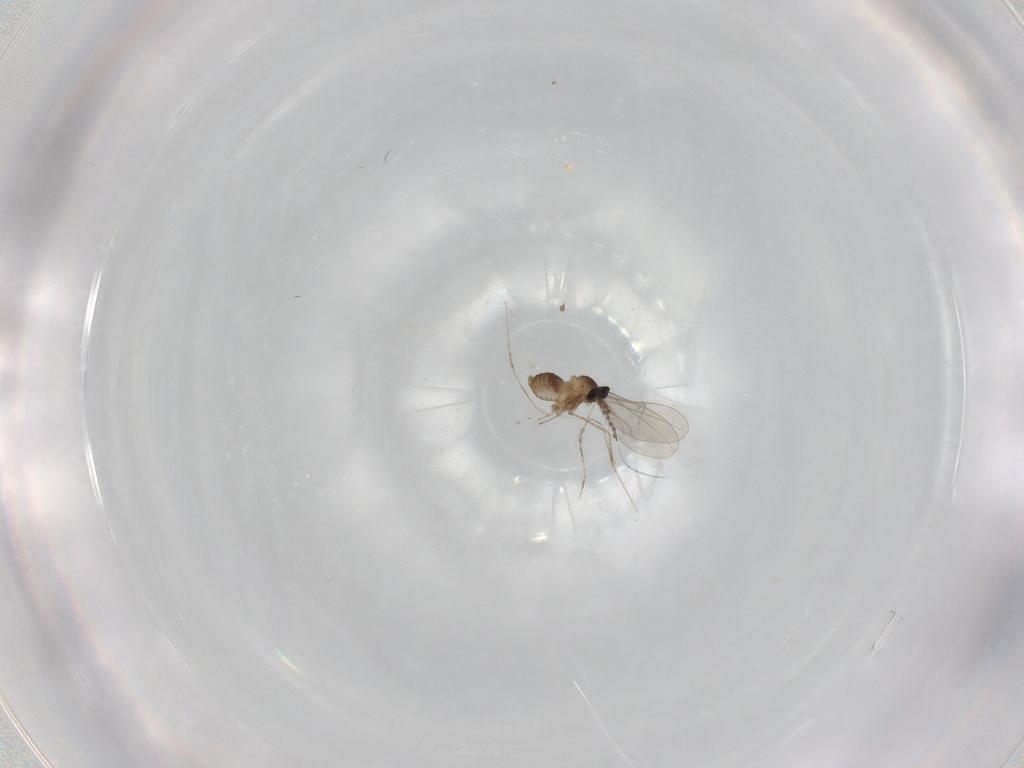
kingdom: Animalia
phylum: Arthropoda
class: Insecta
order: Diptera
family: Cecidomyiidae
